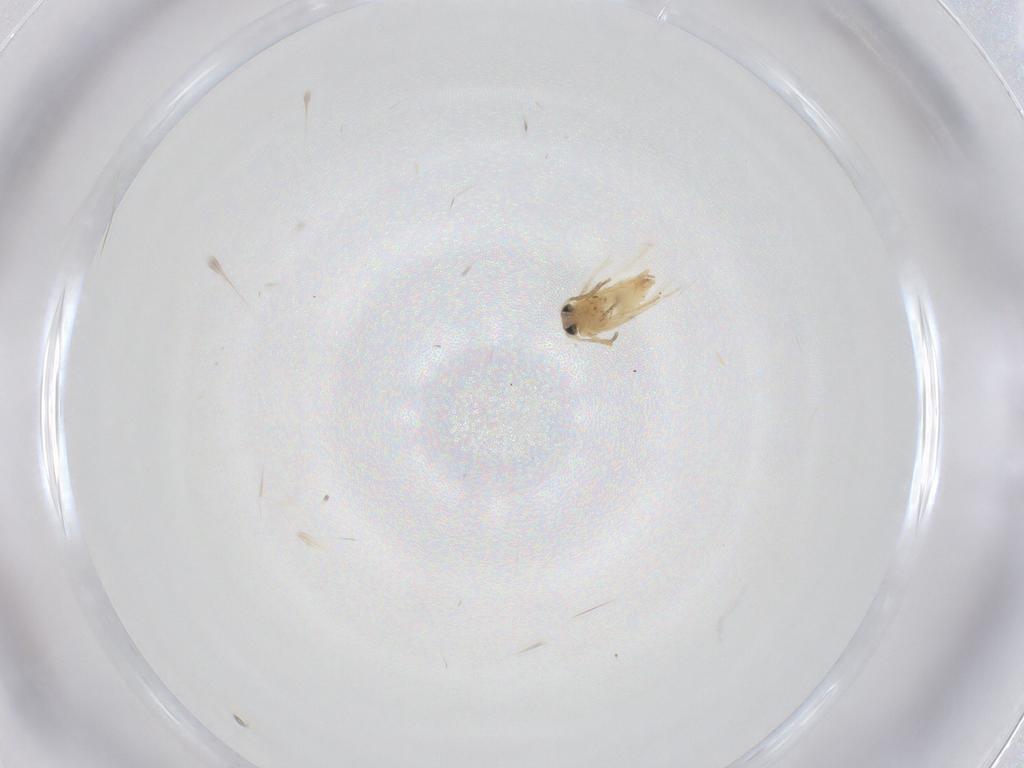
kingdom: Animalia
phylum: Arthropoda
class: Insecta
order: Lepidoptera
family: Crambidae
